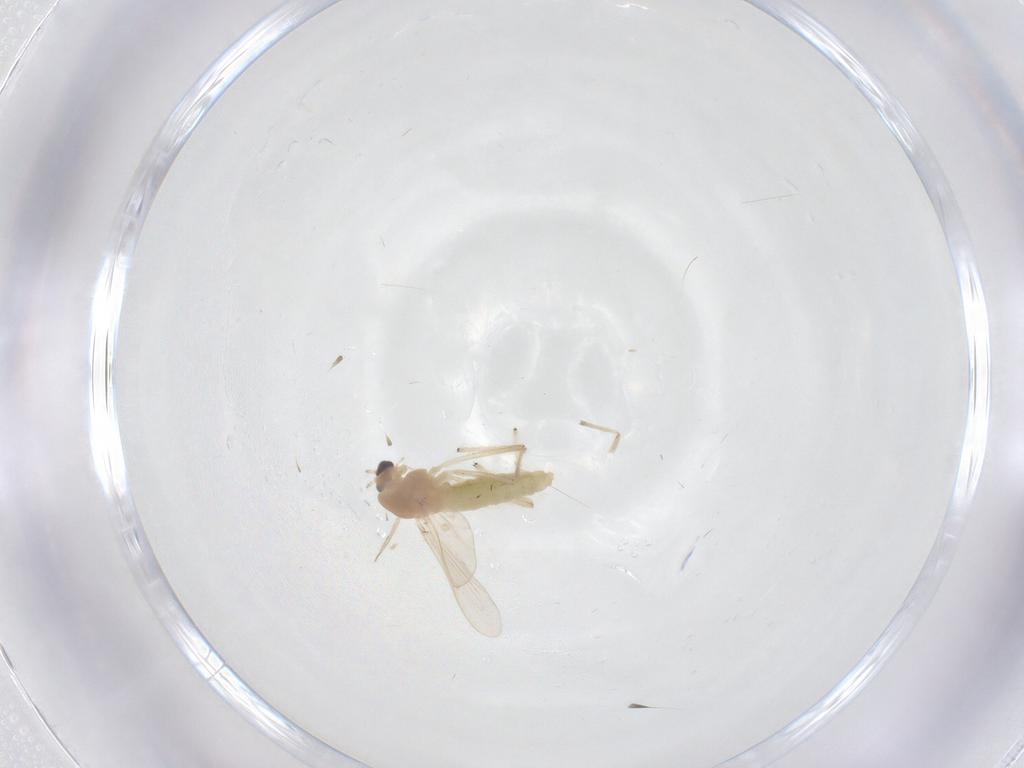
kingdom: Animalia
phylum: Arthropoda
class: Insecta
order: Diptera
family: Chironomidae
